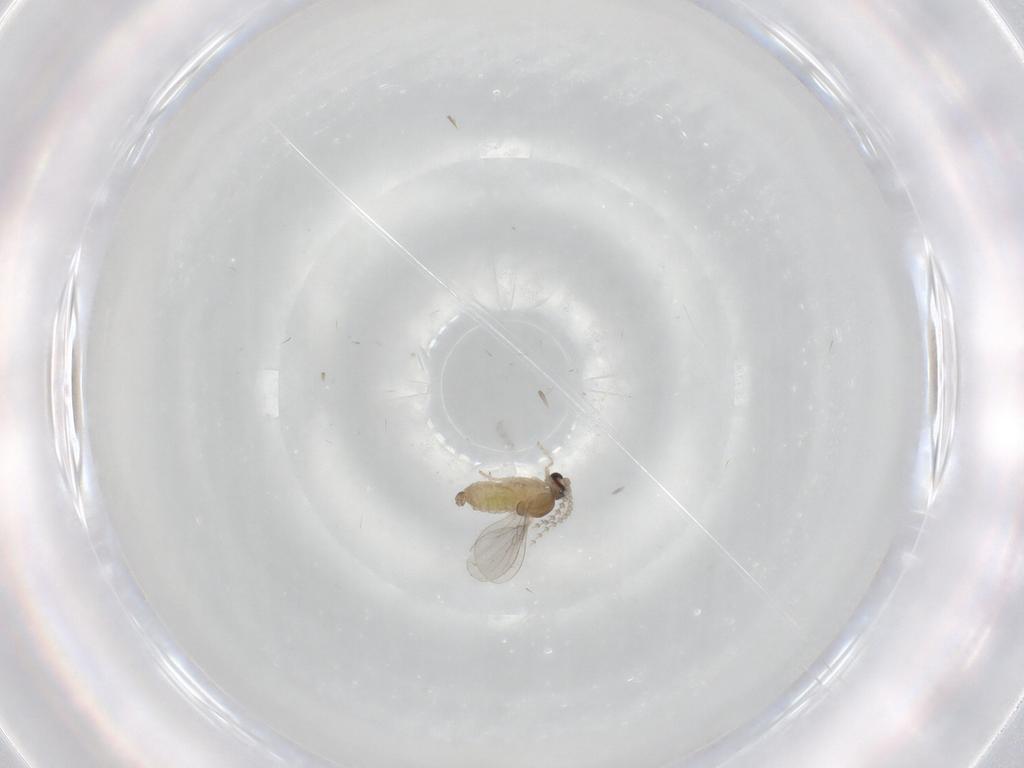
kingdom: Animalia
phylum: Arthropoda
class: Insecta
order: Diptera
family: Cecidomyiidae
